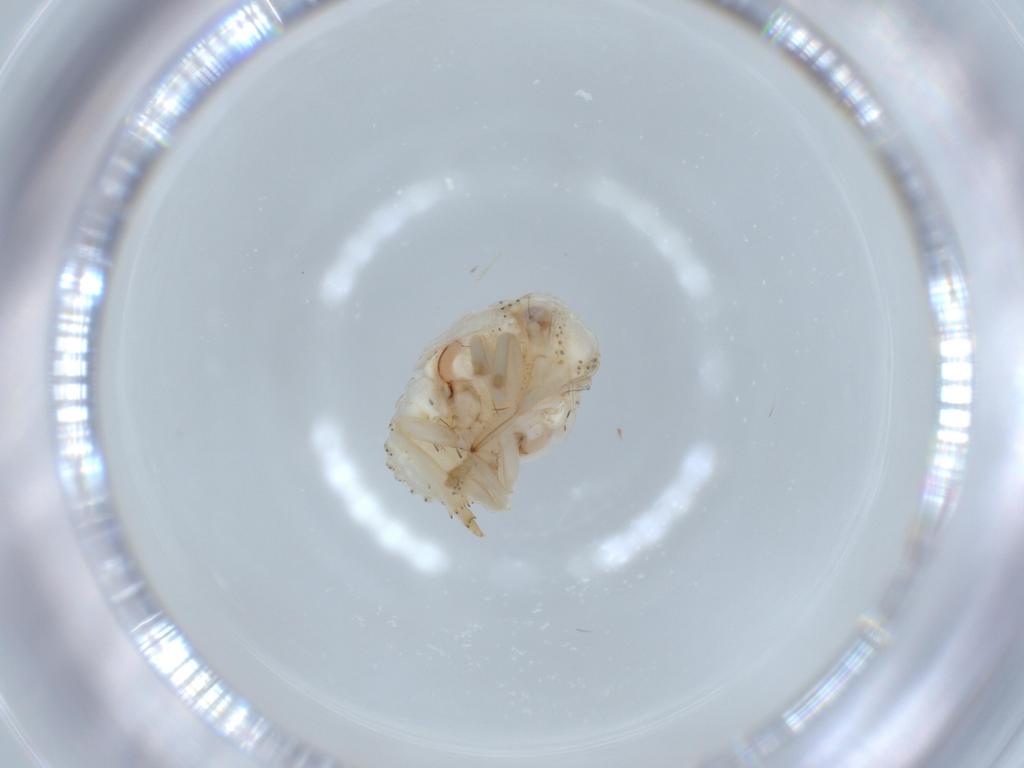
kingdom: Animalia
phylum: Arthropoda
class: Insecta
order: Hemiptera
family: Acanaloniidae
